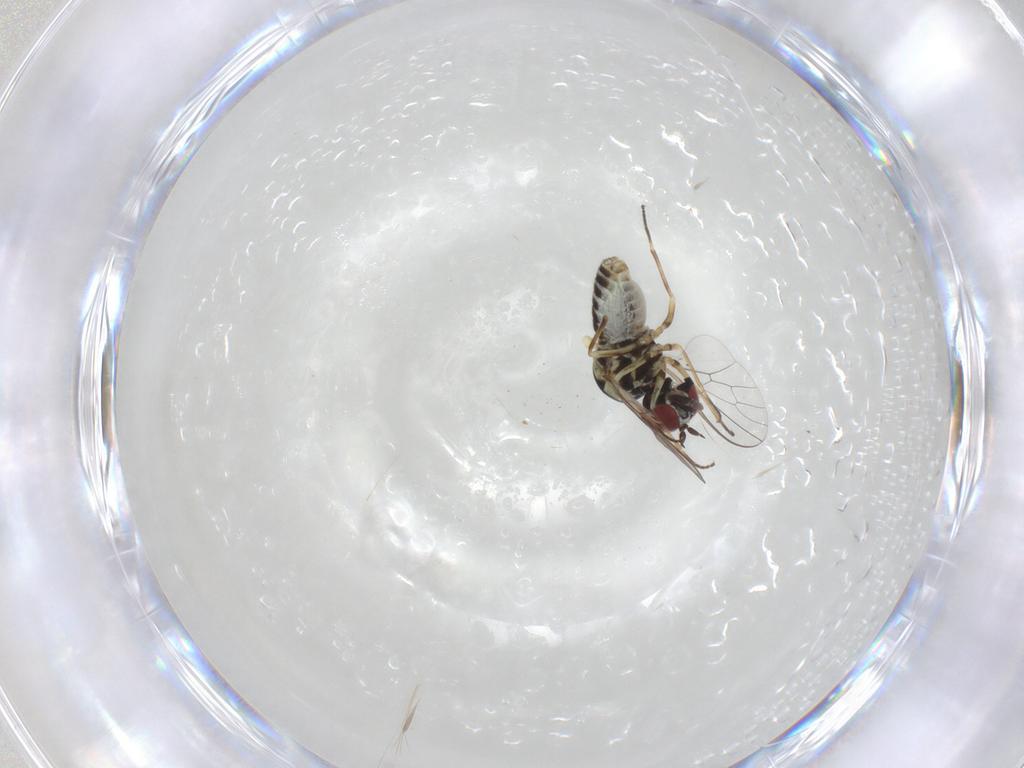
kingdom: Animalia
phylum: Arthropoda
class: Insecta
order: Diptera
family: Bombyliidae
